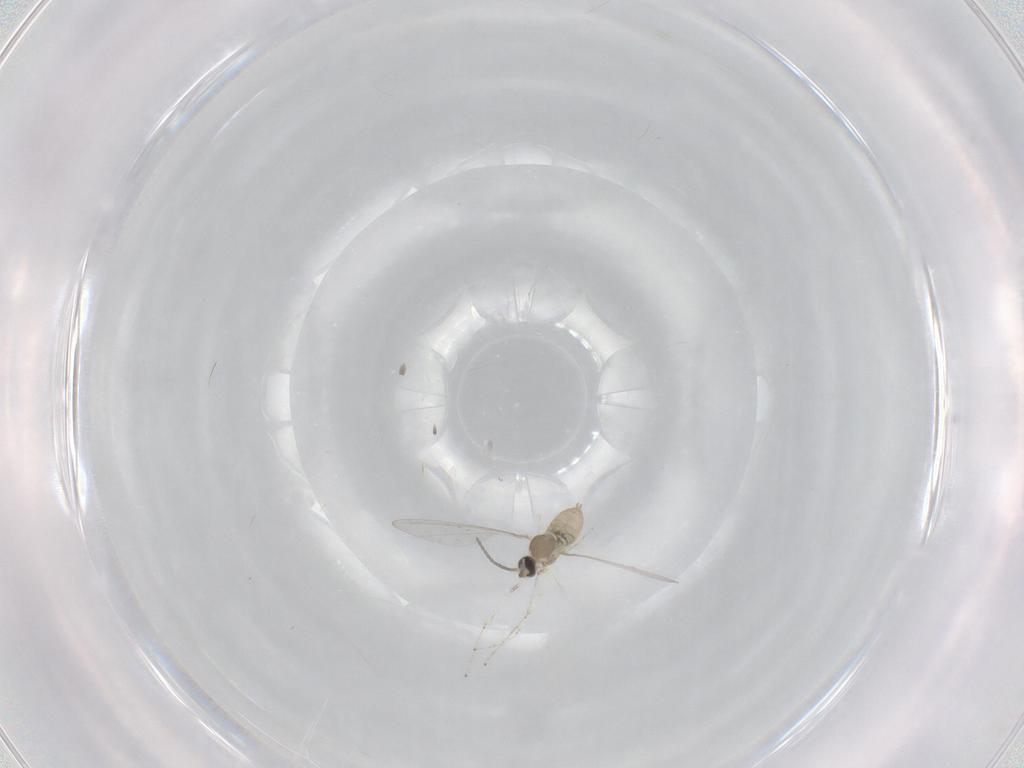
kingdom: Animalia
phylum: Arthropoda
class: Insecta
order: Diptera
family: Cecidomyiidae
